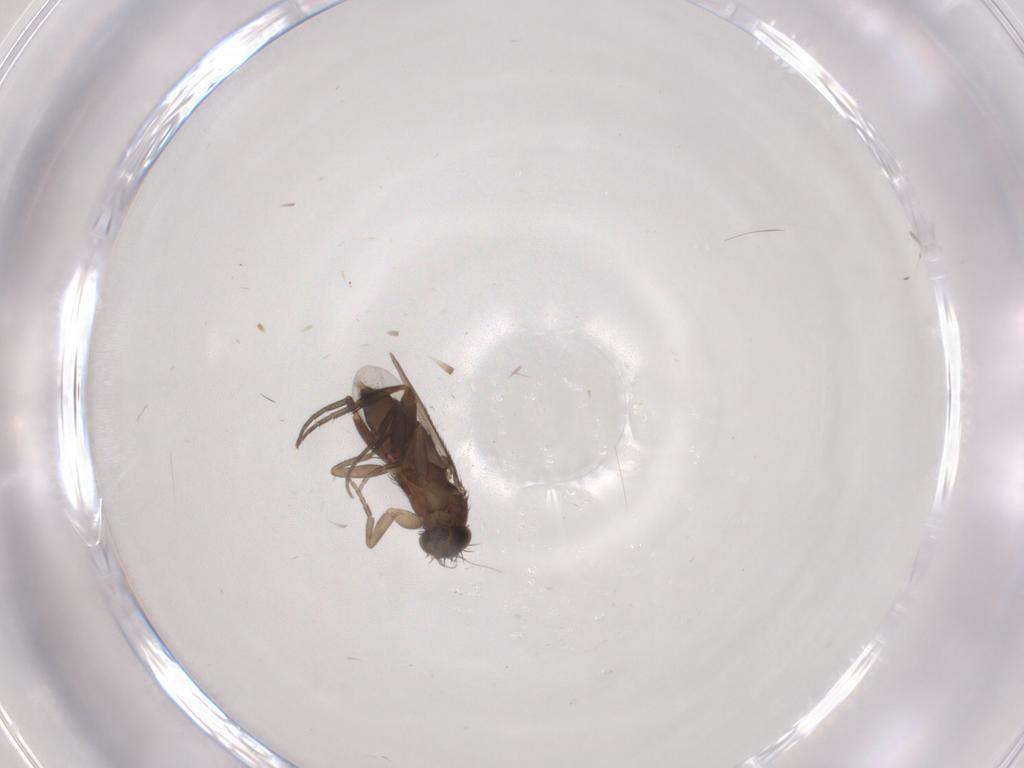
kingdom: Animalia
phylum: Arthropoda
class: Insecta
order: Diptera
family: Phoridae
